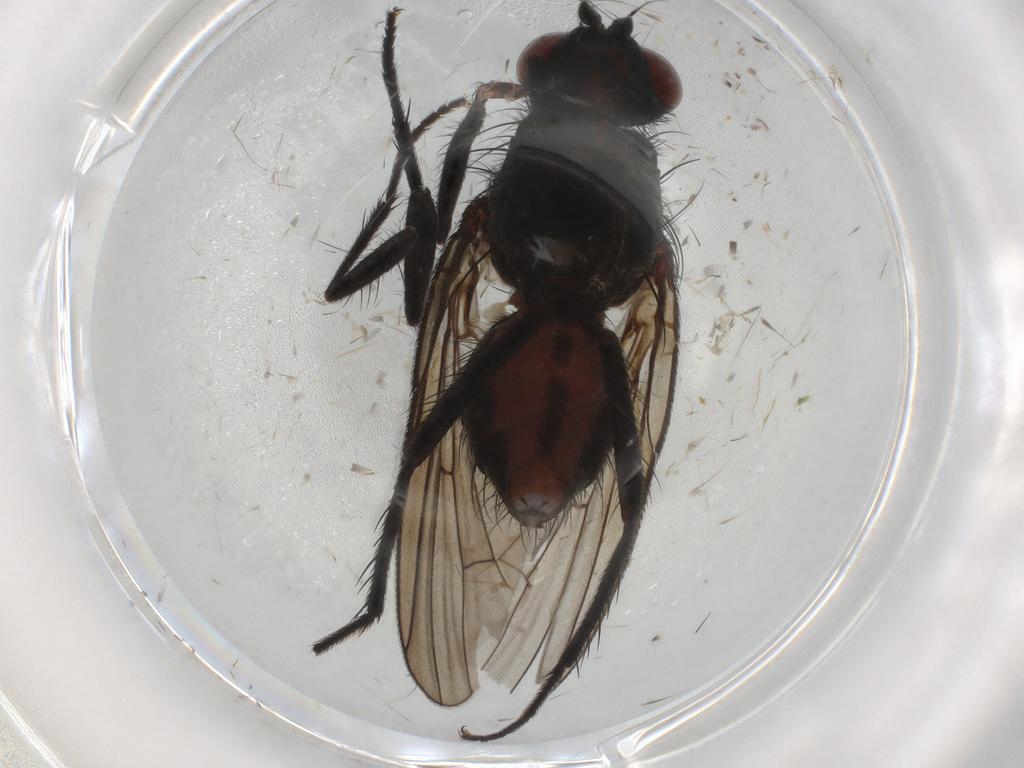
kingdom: Animalia
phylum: Arthropoda
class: Insecta
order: Diptera
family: Anthomyiidae
